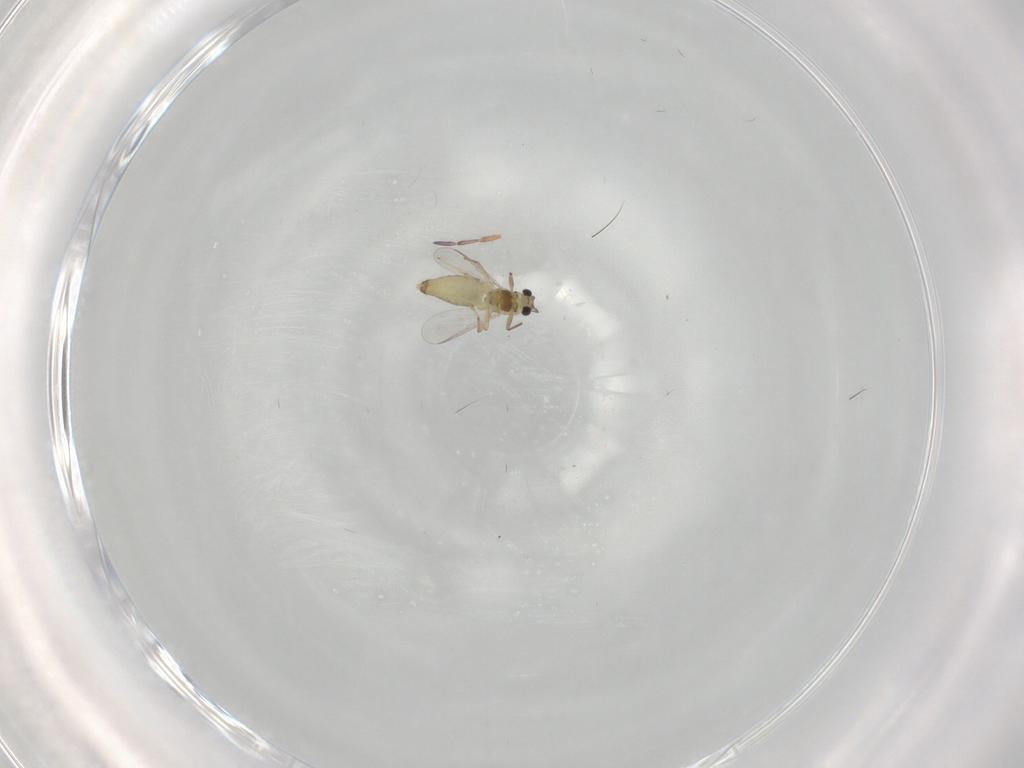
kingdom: Animalia
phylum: Arthropoda
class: Insecta
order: Diptera
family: Chironomidae
